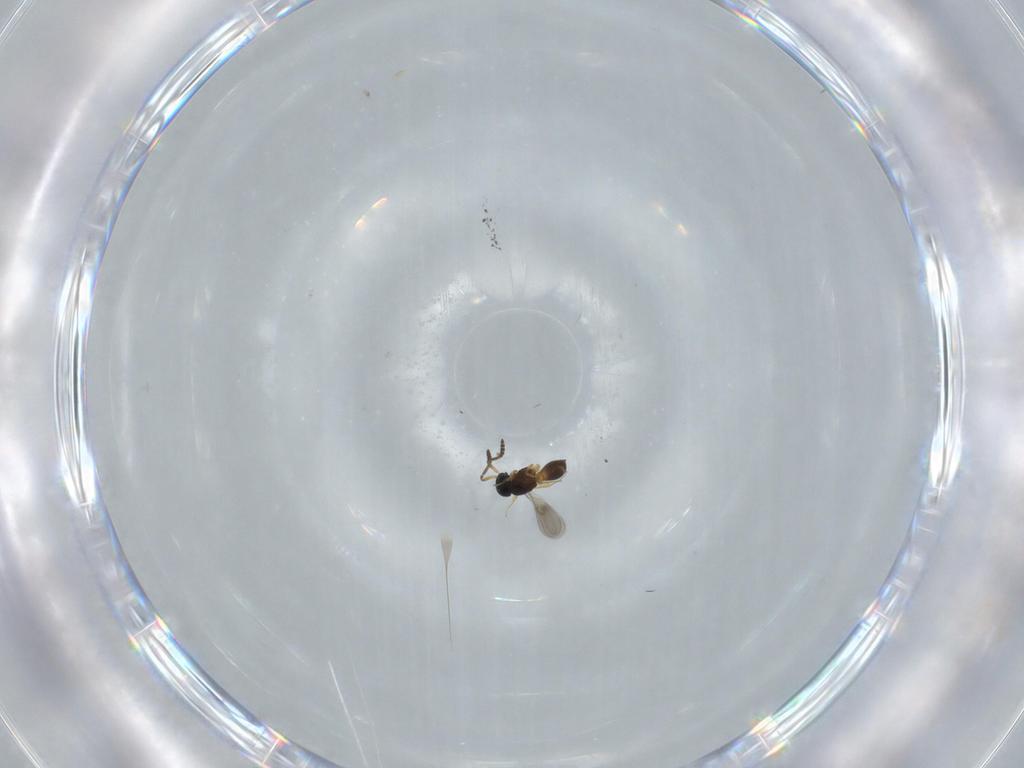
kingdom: Animalia
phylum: Arthropoda
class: Insecta
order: Hymenoptera
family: Scelionidae
